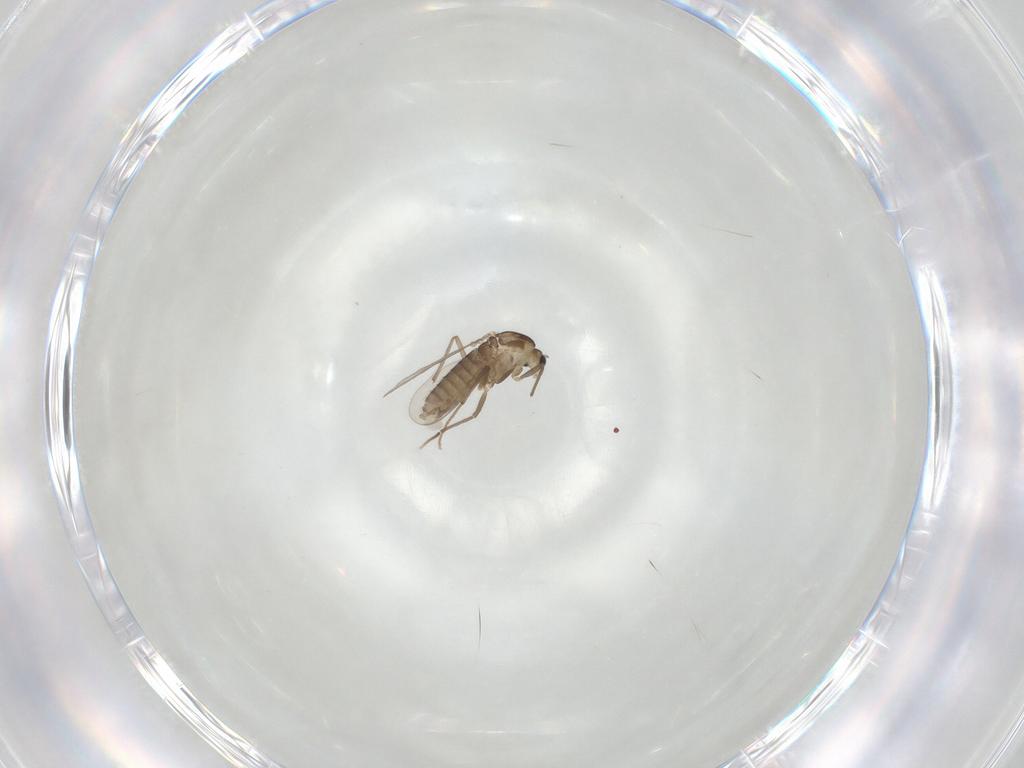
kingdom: Animalia
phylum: Arthropoda
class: Insecta
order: Diptera
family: Chironomidae
